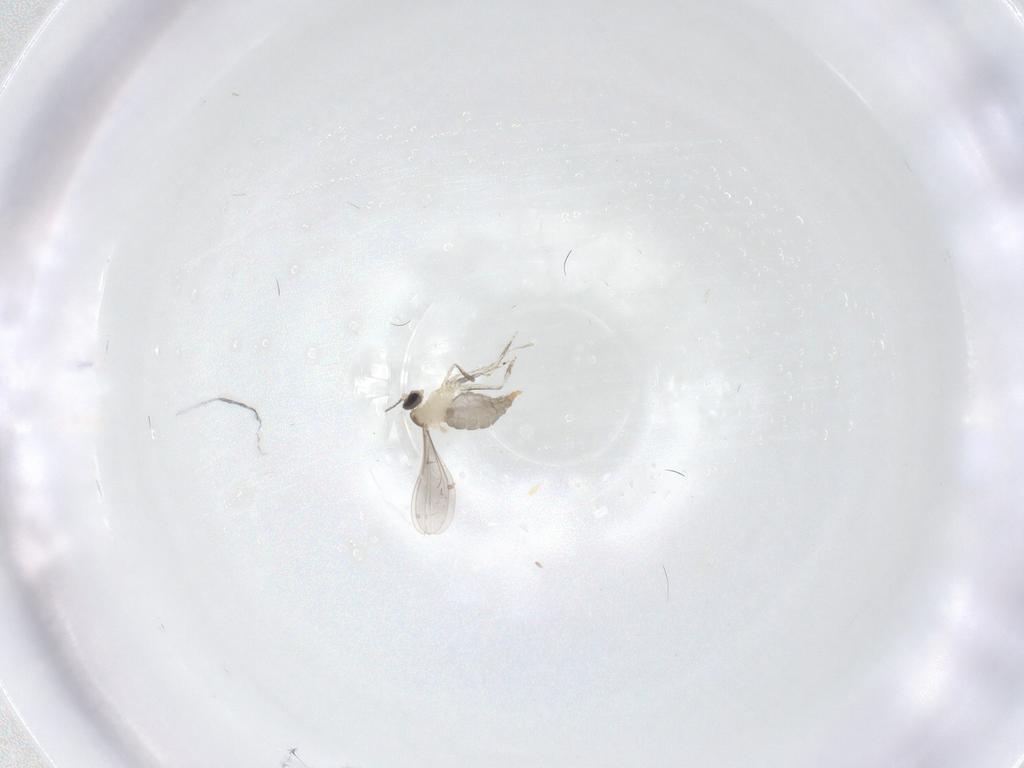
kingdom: Animalia
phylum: Arthropoda
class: Insecta
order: Diptera
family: Cecidomyiidae
